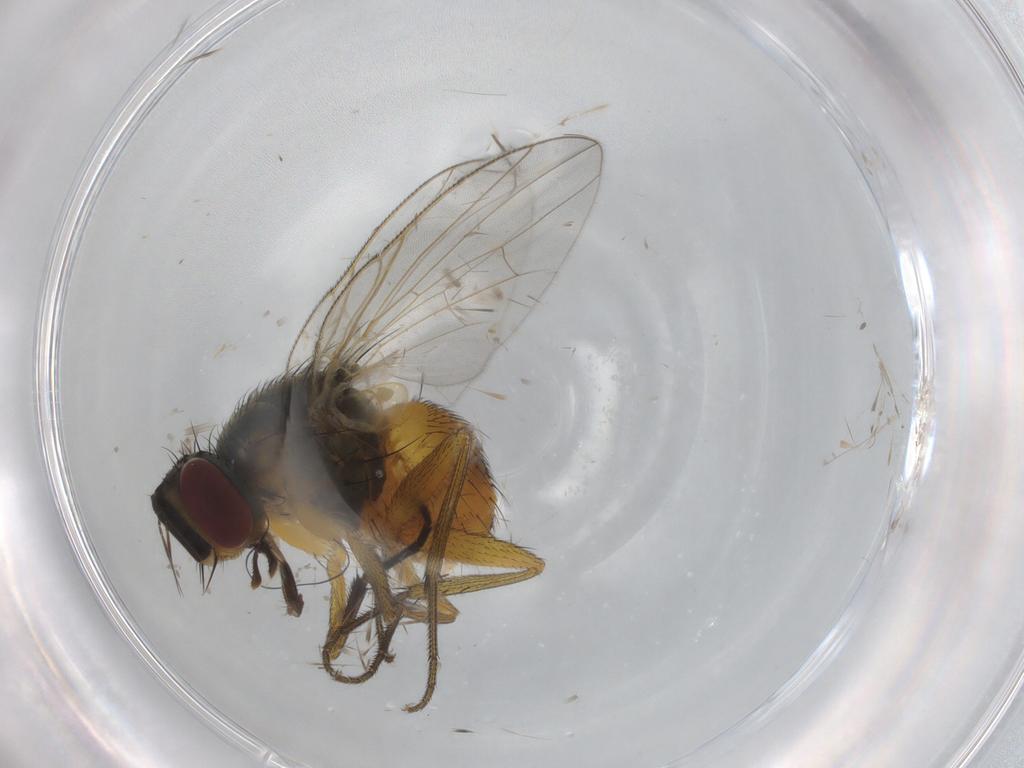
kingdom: Animalia
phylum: Arthropoda
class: Insecta
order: Diptera
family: Muscidae
